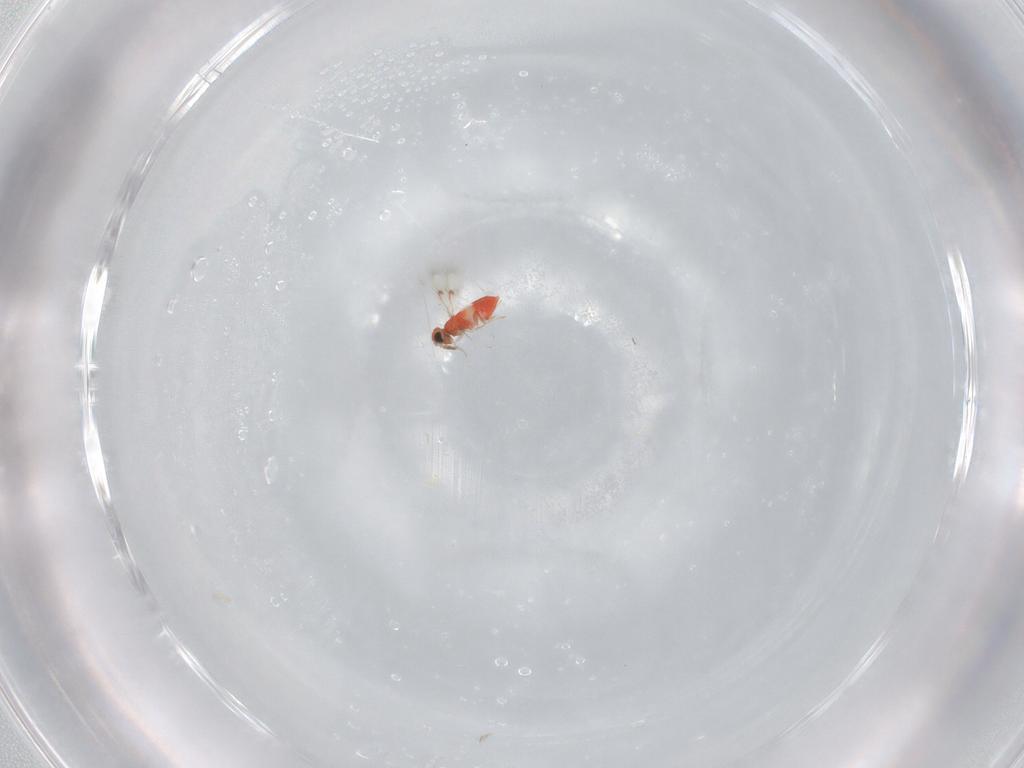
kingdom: Animalia
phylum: Arthropoda
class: Insecta
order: Hymenoptera
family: Trichogrammatidae
